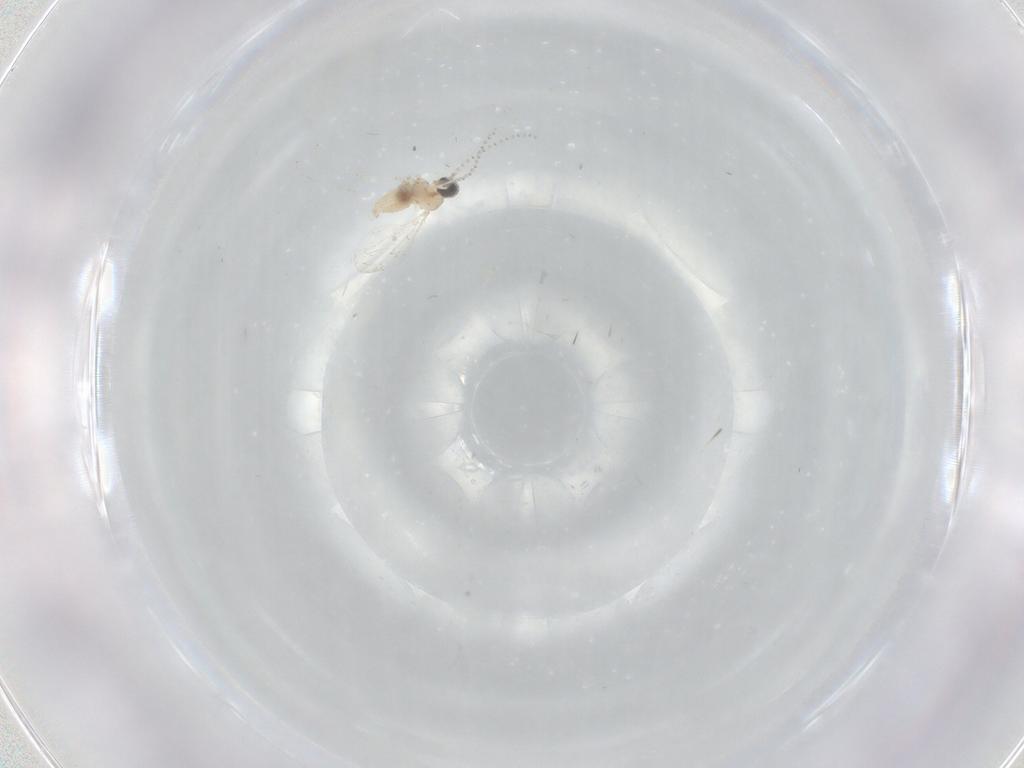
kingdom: Animalia
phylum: Arthropoda
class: Insecta
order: Diptera
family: Cecidomyiidae
